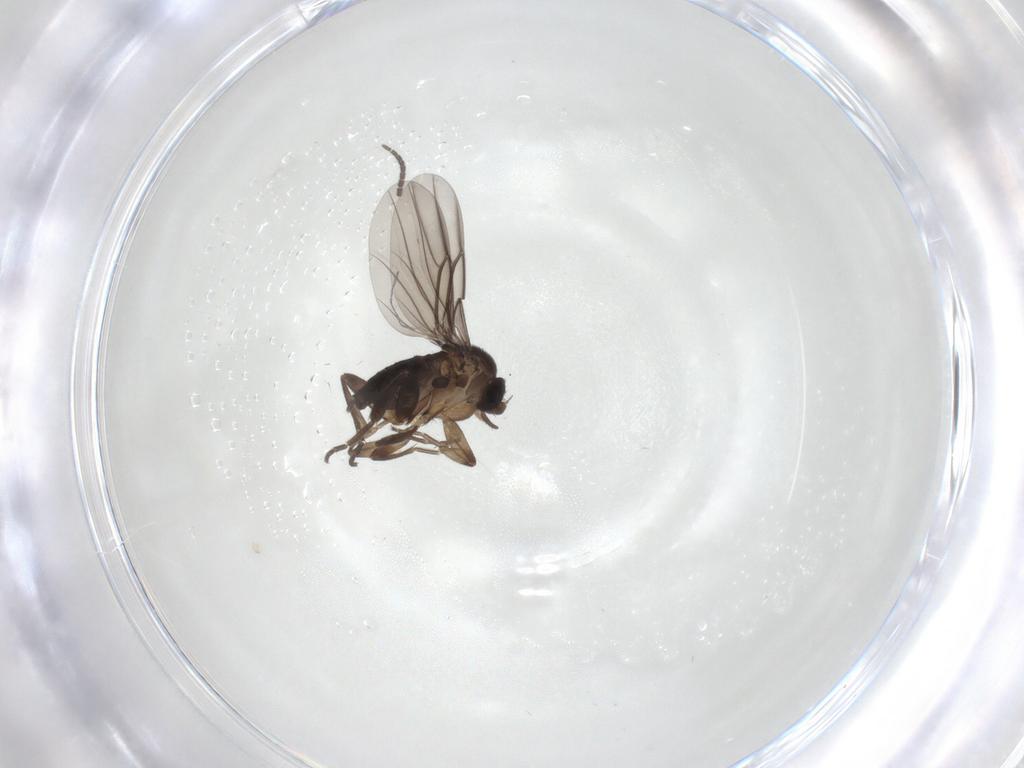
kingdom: Animalia
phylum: Arthropoda
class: Insecta
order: Diptera
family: Phoridae
